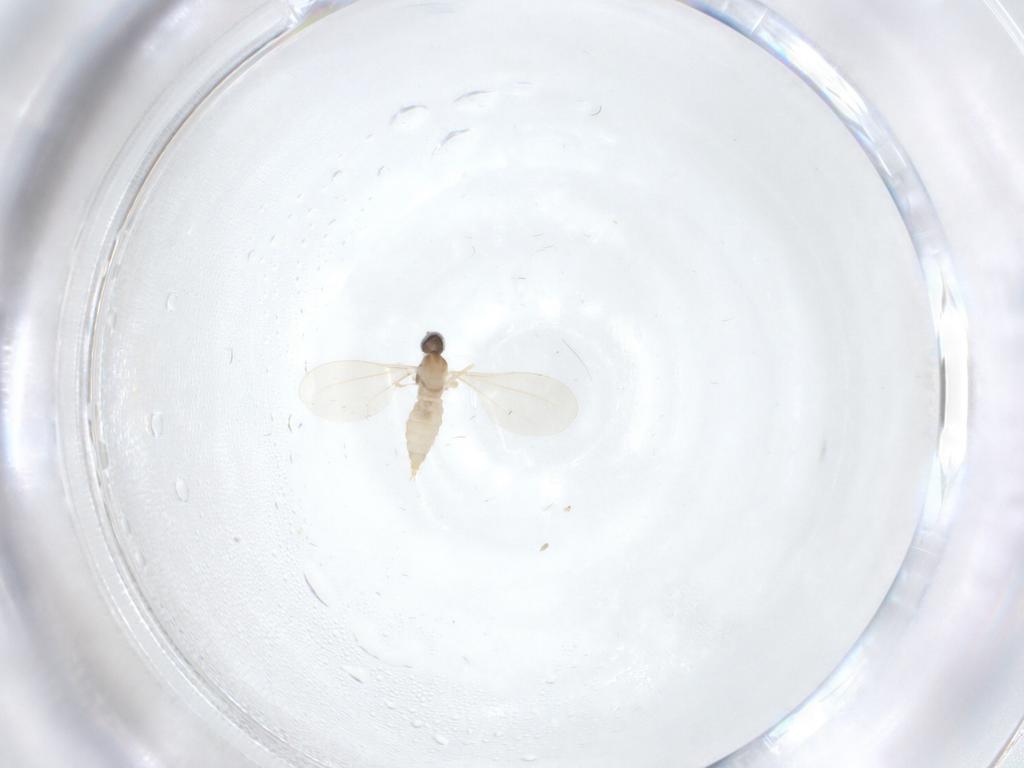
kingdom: Animalia
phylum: Arthropoda
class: Insecta
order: Diptera
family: Cecidomyiidae
